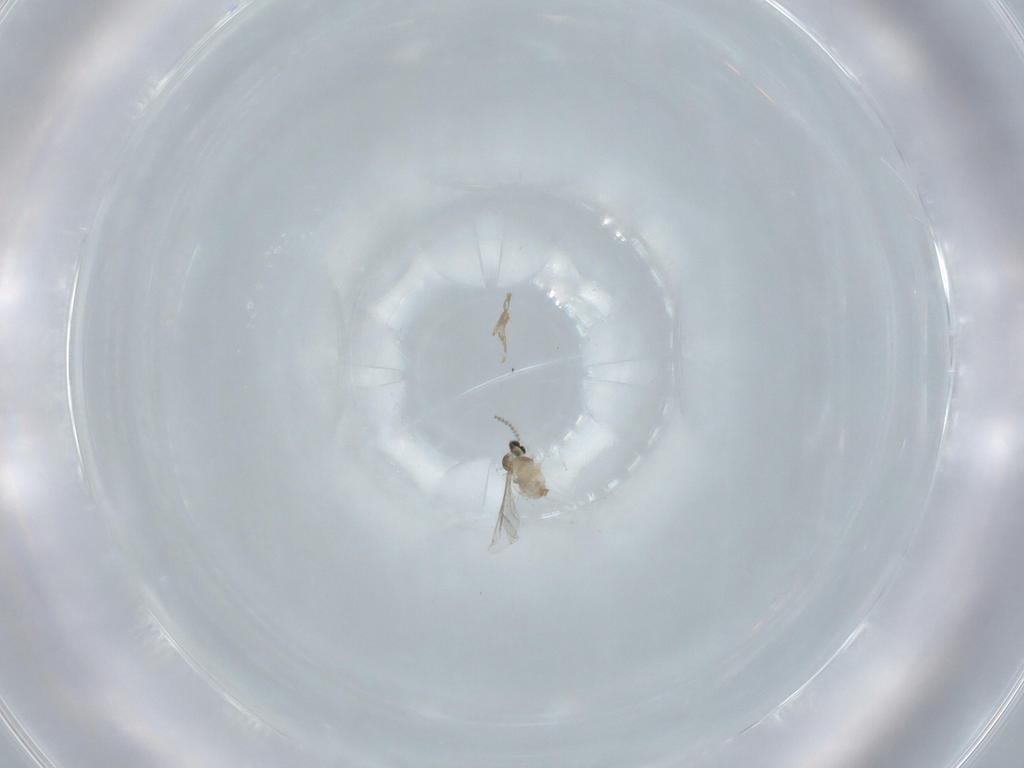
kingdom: Animalia
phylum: Arthropoda
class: Insecta
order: Diptera
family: Cecidomyiidae
